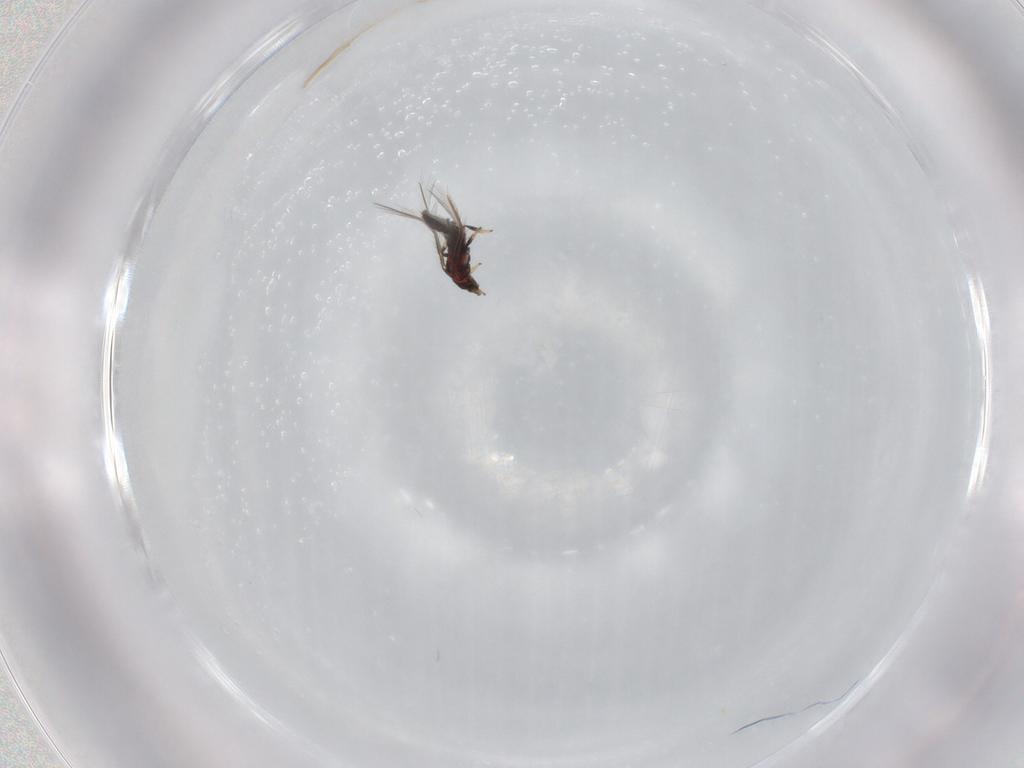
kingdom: Animalia
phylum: Arthropoda
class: Insecta
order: Thysanoptera
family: Thripidae
